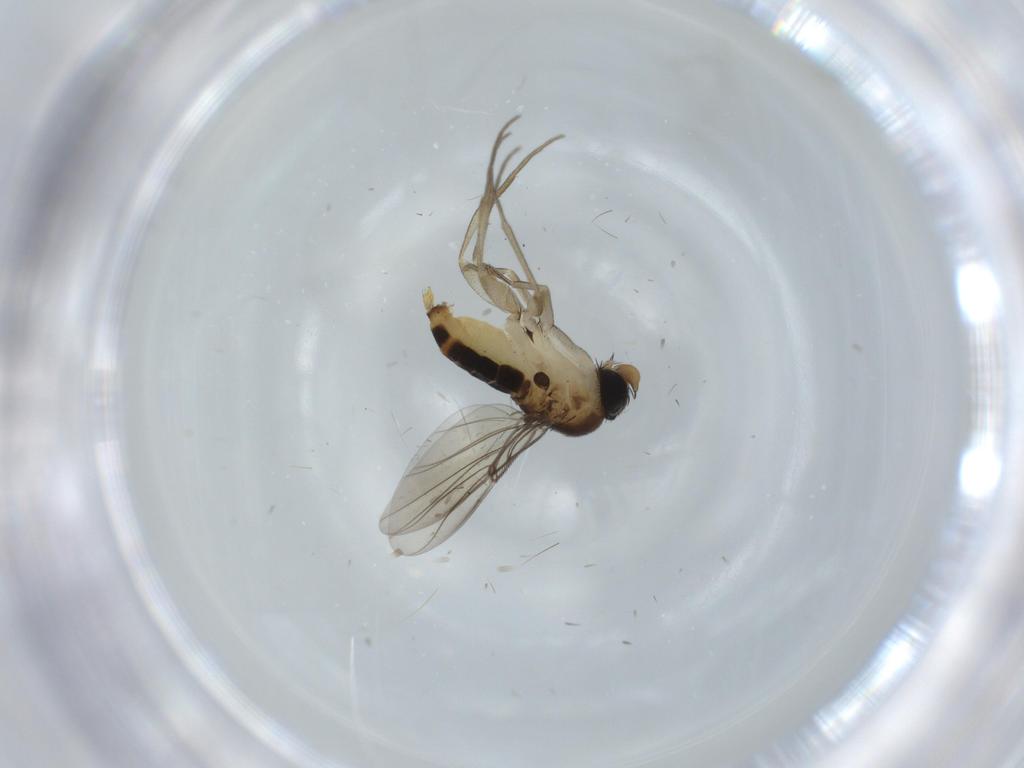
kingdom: Animalia
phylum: Arthropoda
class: Insecta
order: Diptera
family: Phoridae
